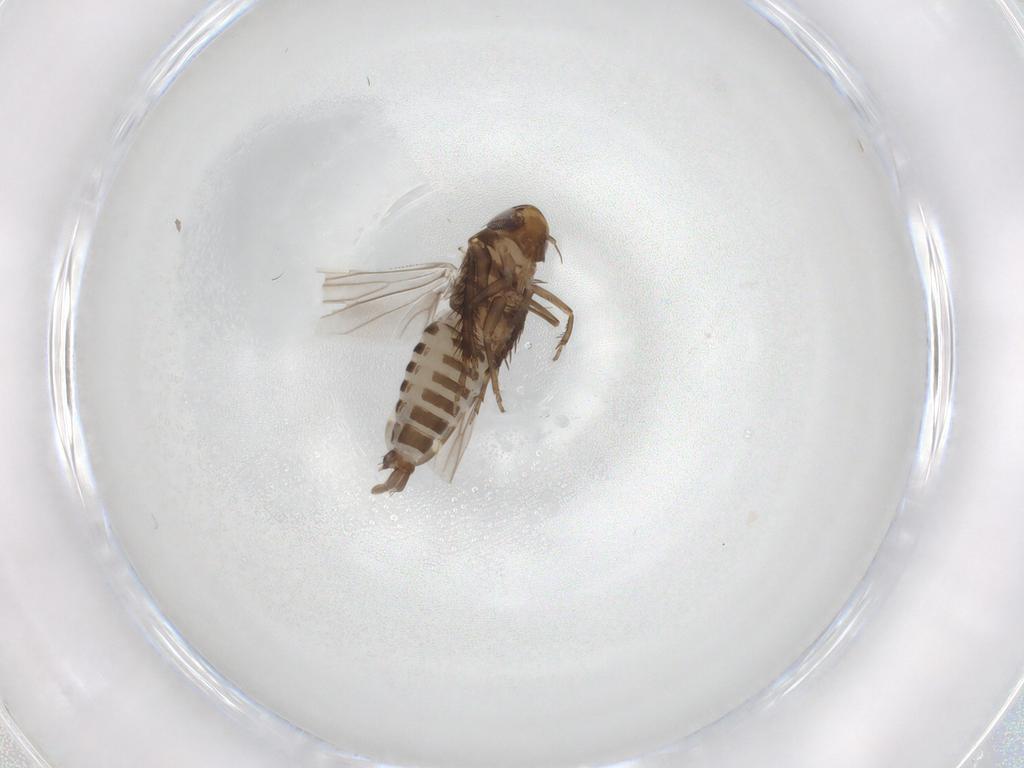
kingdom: Animalia
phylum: Arthropoda
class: Insecta
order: Hemiptera
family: Cicadellidae
